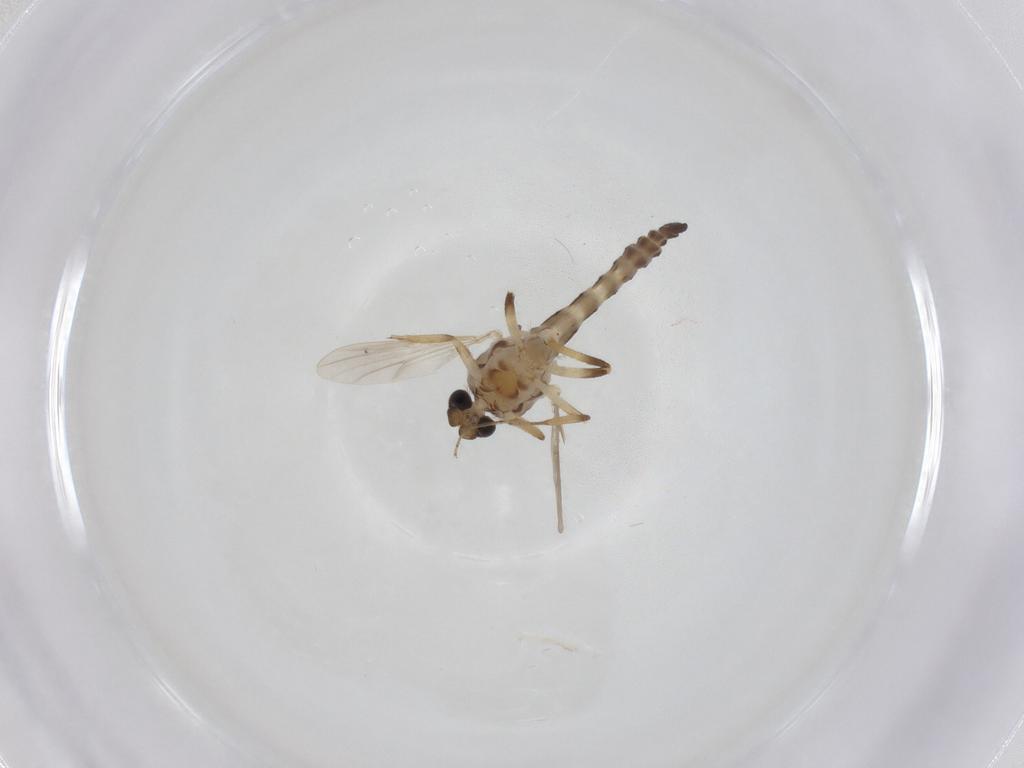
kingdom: Animalia
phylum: Arthropoda
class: Insecta
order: Diptera
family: Ceratopogonidae
